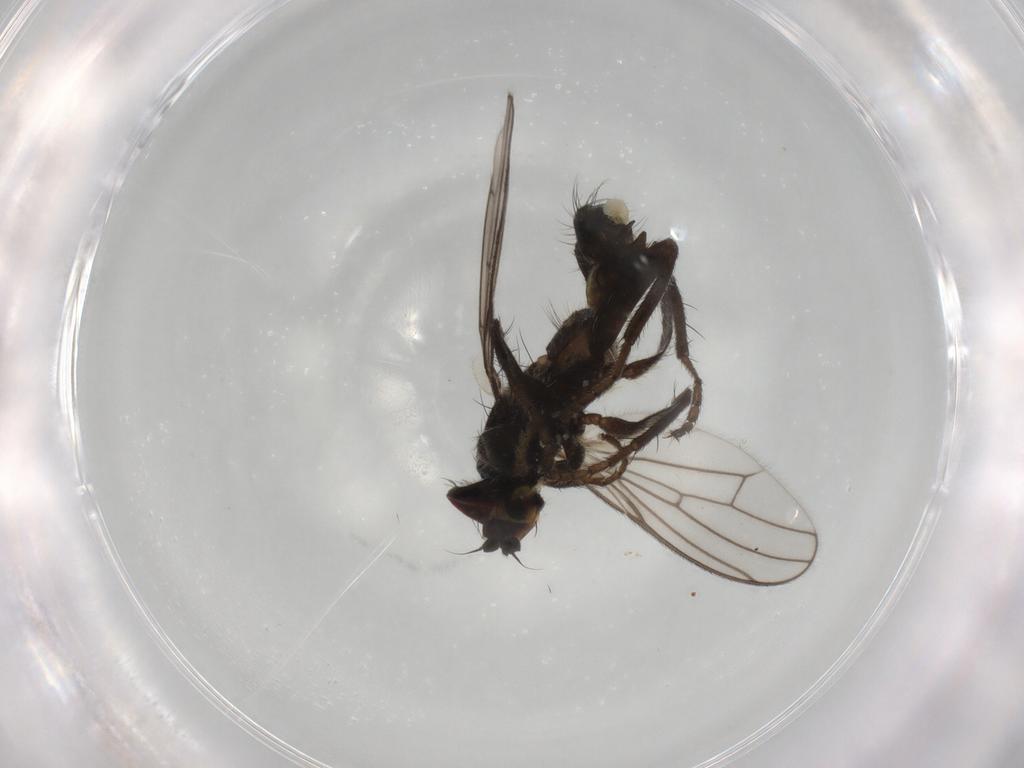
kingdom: Animalia
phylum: Arthropoda
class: Insecta
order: Diptera
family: Scathophagidae
